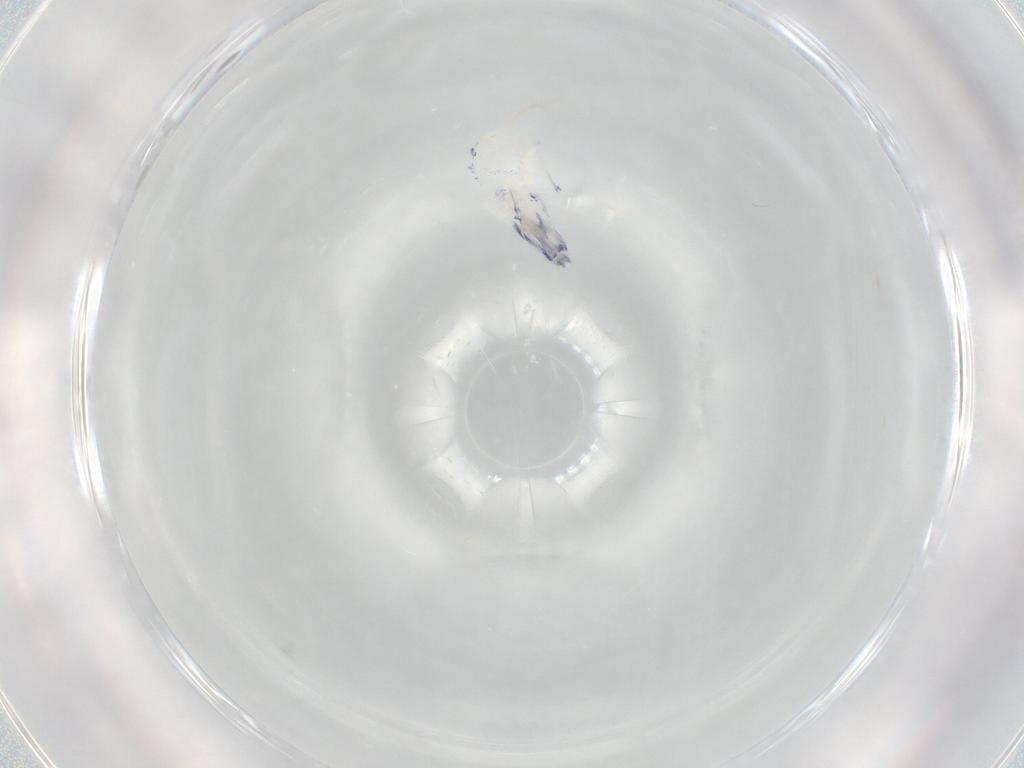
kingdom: Animalia
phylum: Arthropoda
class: Collembola
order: Entomobryomorpha
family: Entomobryidae
